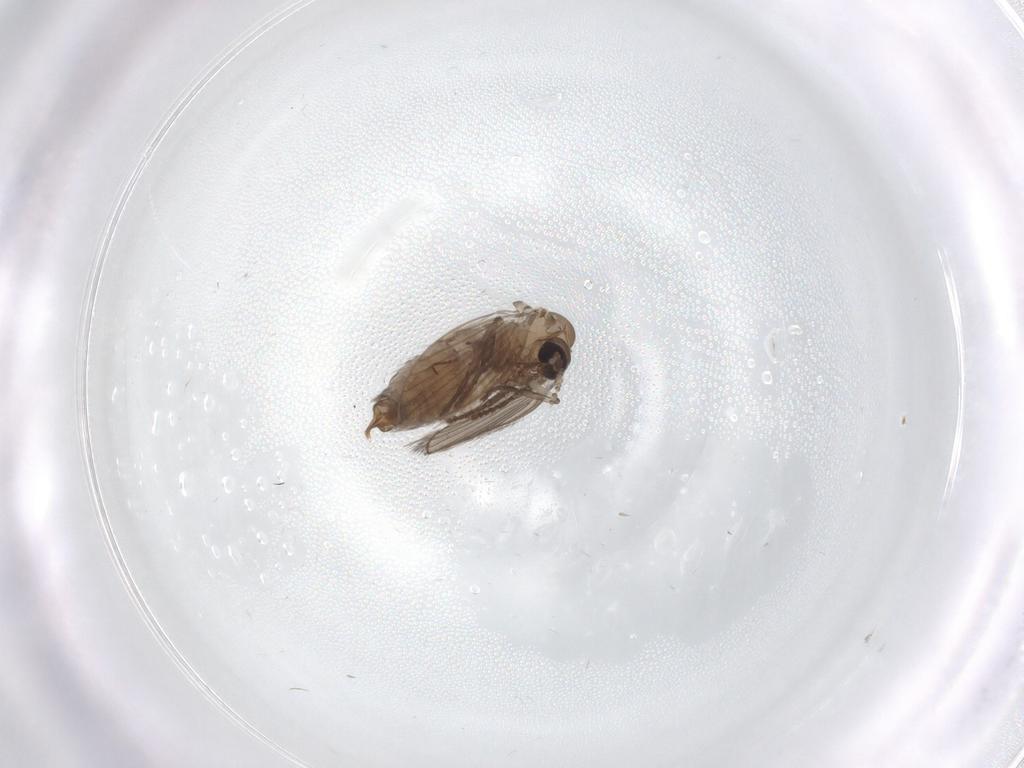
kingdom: Animalia
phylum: Arthropoda
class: Insecta
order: Diptera
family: Psychodidae
